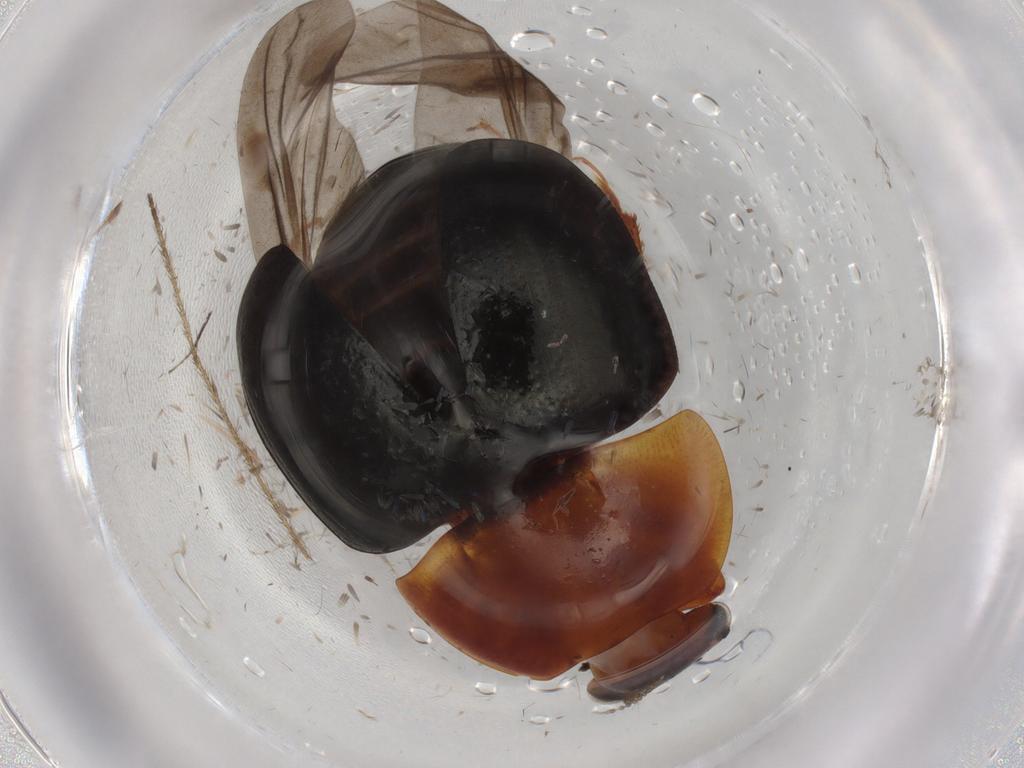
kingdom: Animalia
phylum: Arthropoda
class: Insecta
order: Coleoptera
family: Nitidulidae
